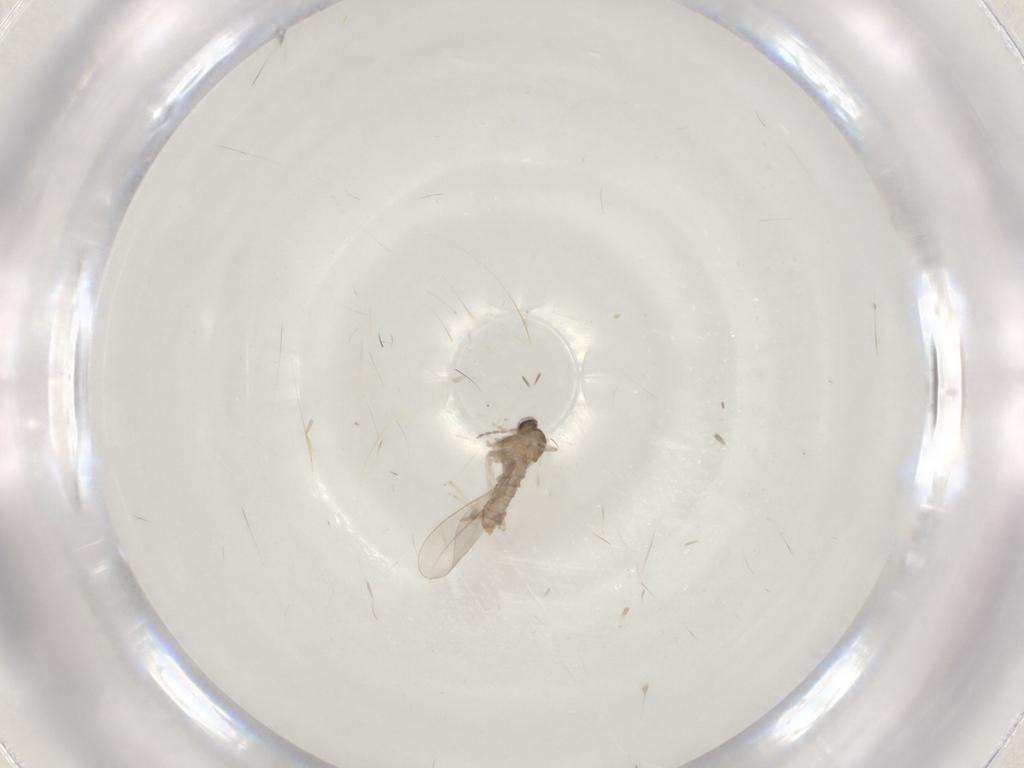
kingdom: Animalia
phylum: Arthropoda
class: Insecta
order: Diptera
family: Cecidomyiidae
